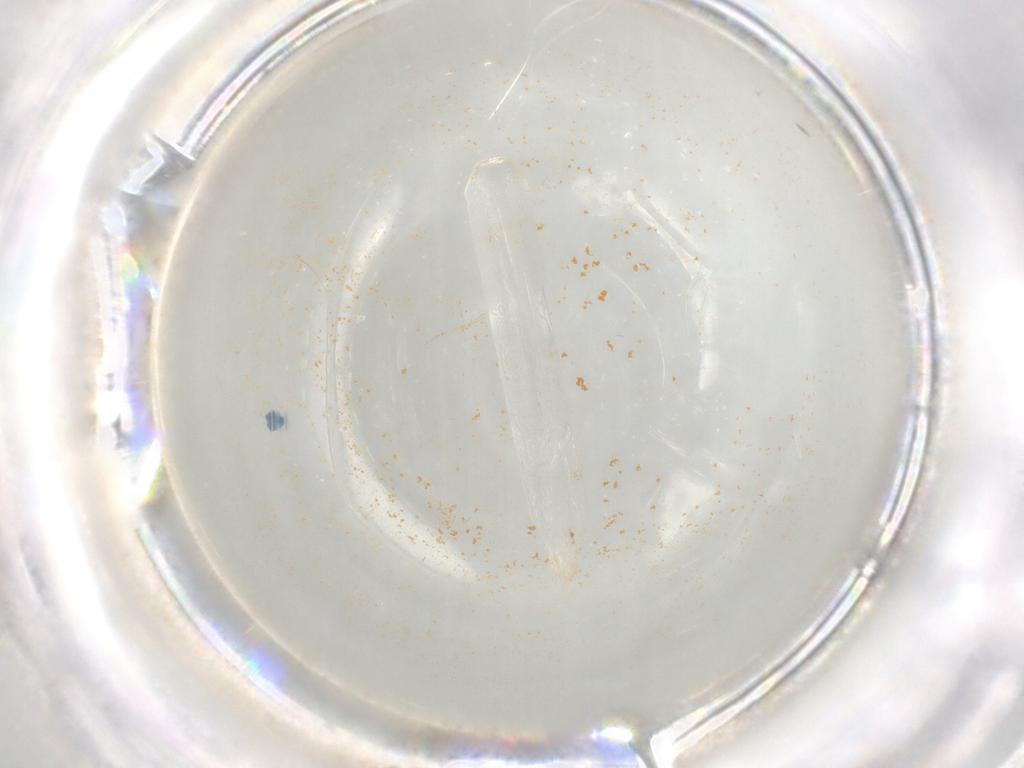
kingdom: Animalia
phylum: Arthropoda
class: Insecta
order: Hymenoptera
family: Scelionidae
